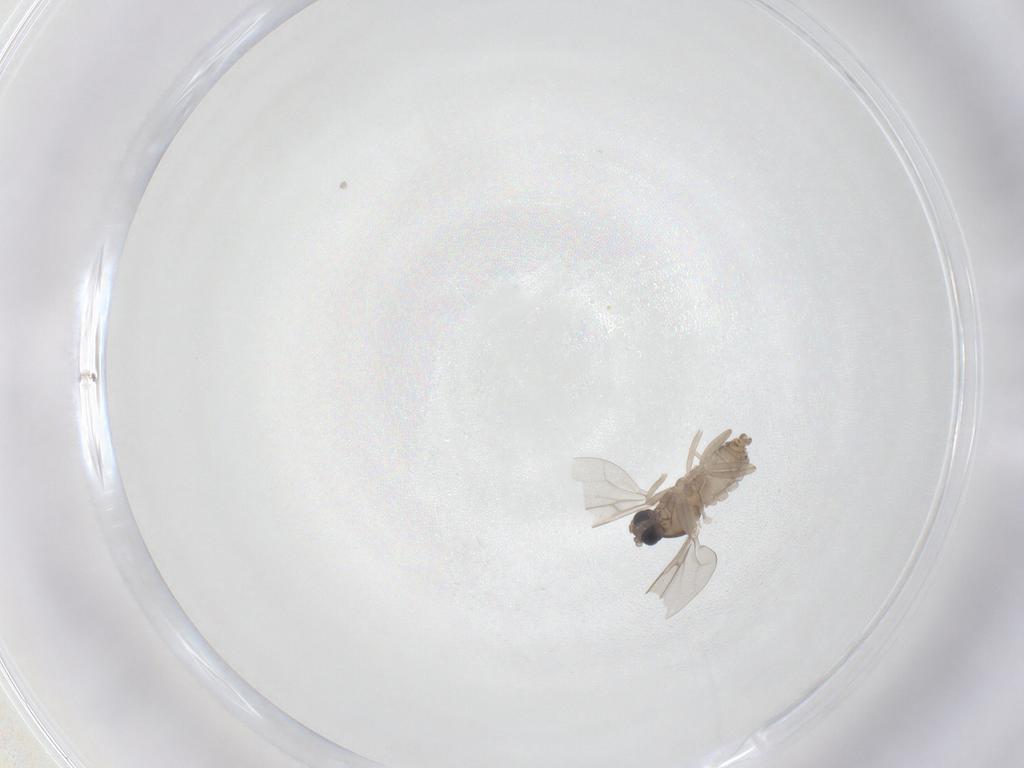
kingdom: Animalia
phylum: Arthropoda
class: Insecta
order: Diptera
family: Cecidomyiidae
